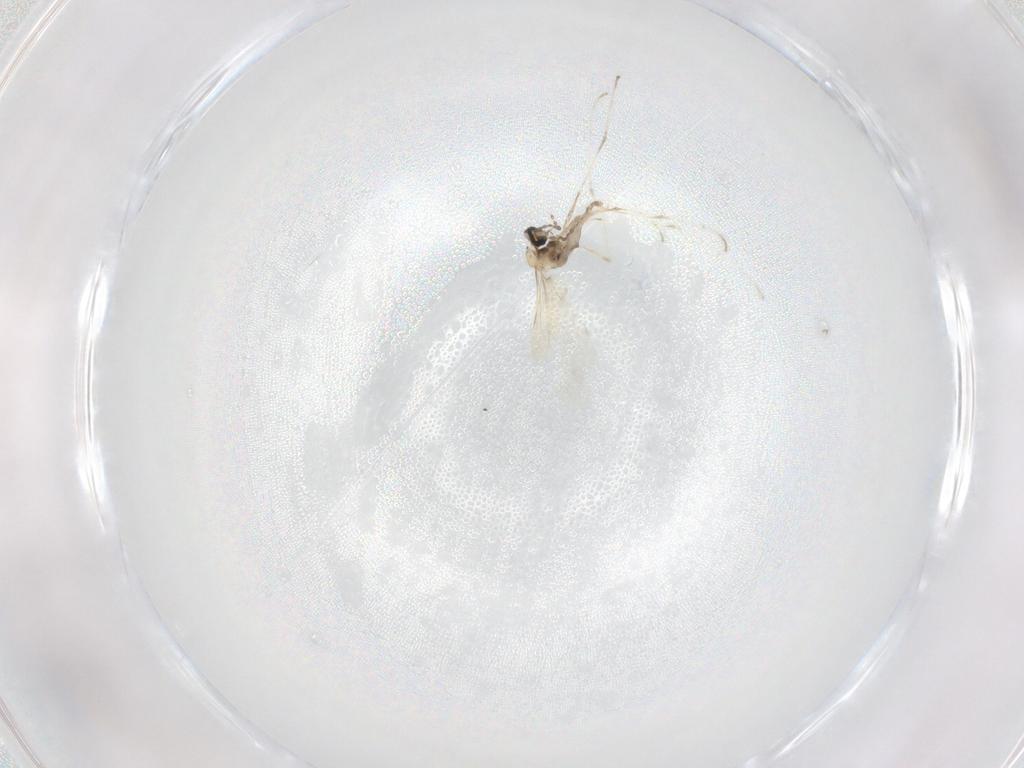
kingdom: Animalia
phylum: Arthropoda
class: Insecta
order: Diptera
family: Cecidomyiidae
